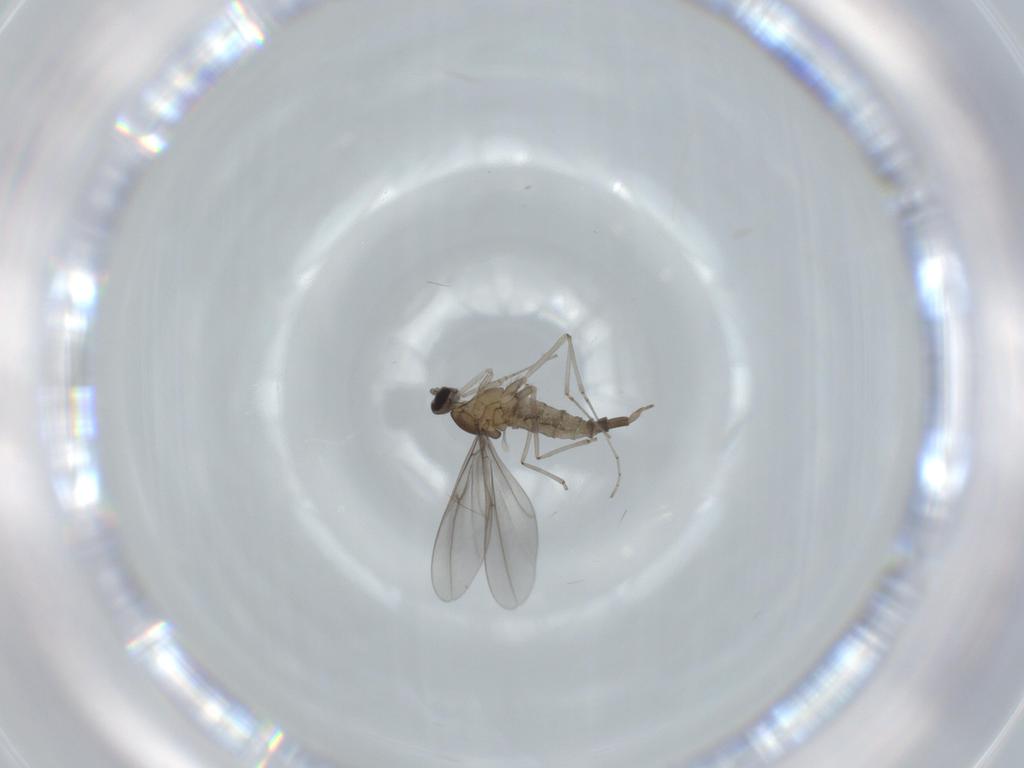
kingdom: Animalia
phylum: Arthropoda
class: Insecta
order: Diptera
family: Cecidomyiidae
